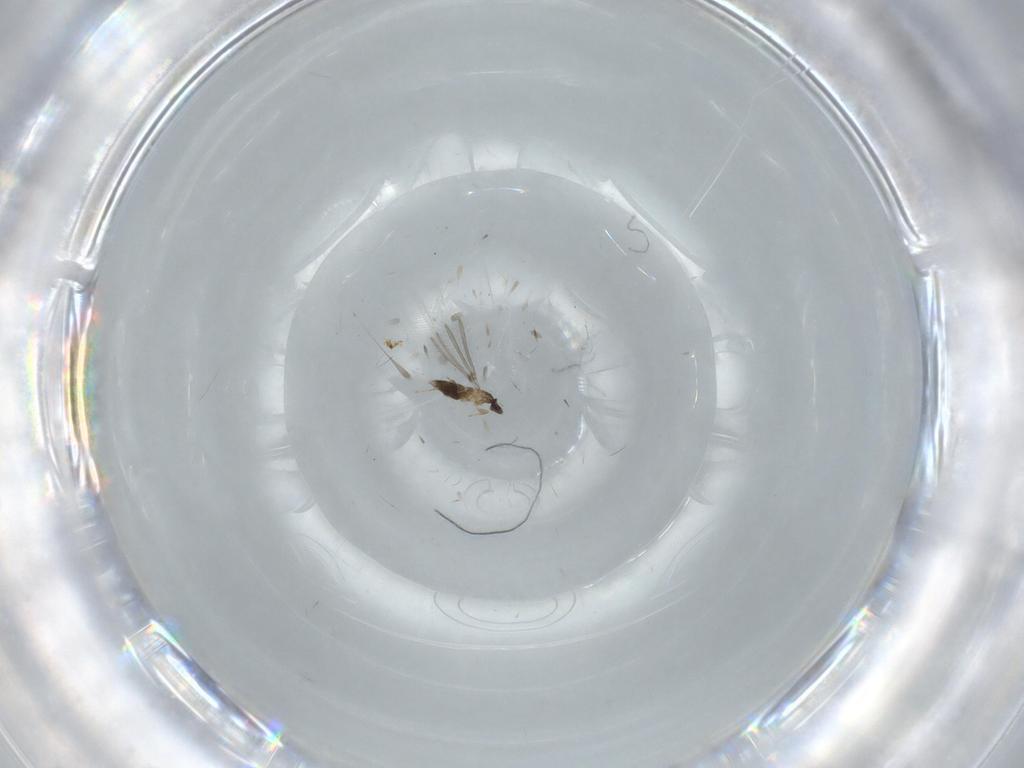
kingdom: Animalia
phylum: Arthropoda
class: Insecta
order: Hymenoptera
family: Mymaridae
